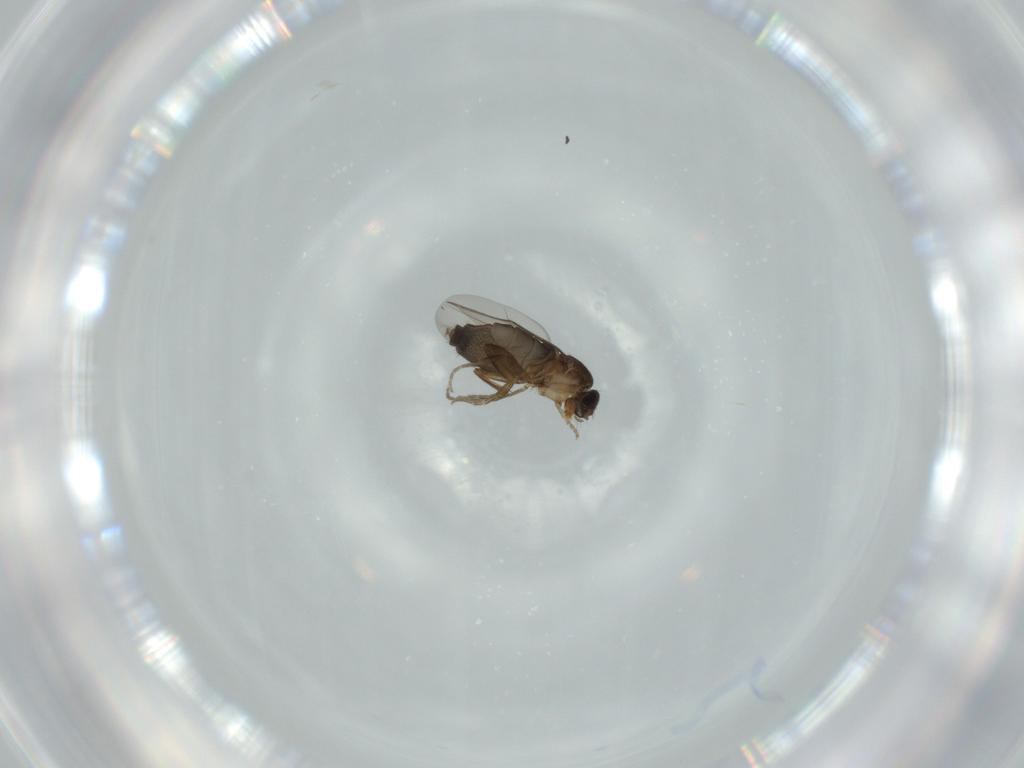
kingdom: Animalia
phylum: Arthropoda
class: Insecta
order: Diptera
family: Phoridae
